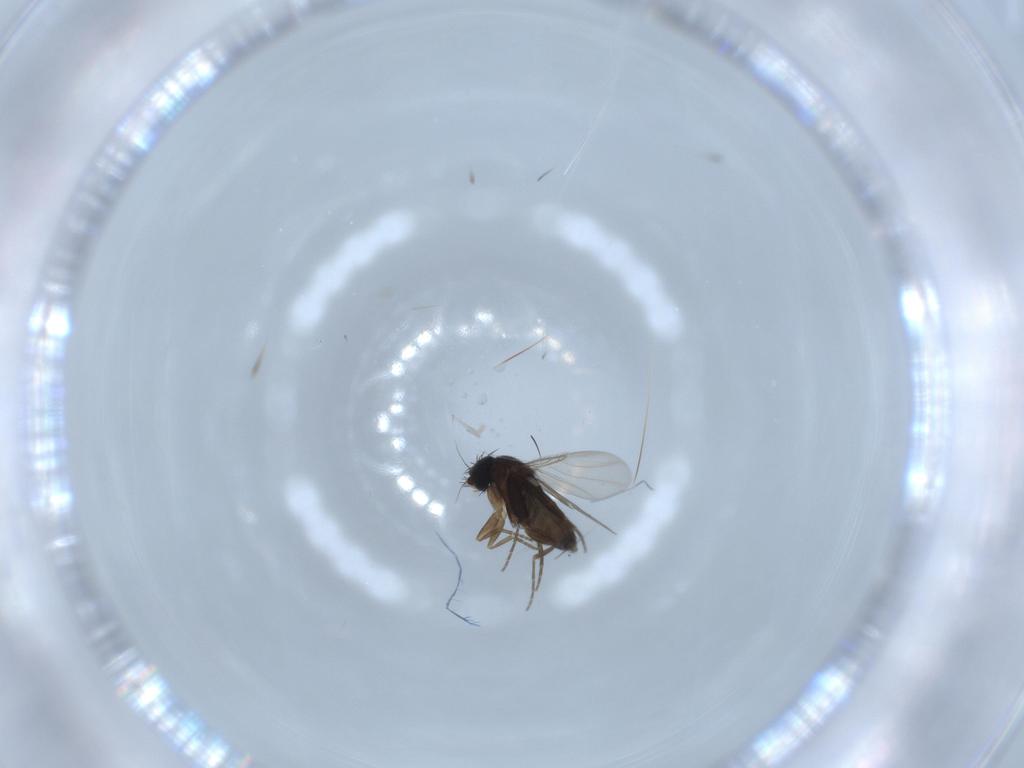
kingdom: Animalia
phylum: Arthropoda
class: Insecta
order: Diptera
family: Phoridae
